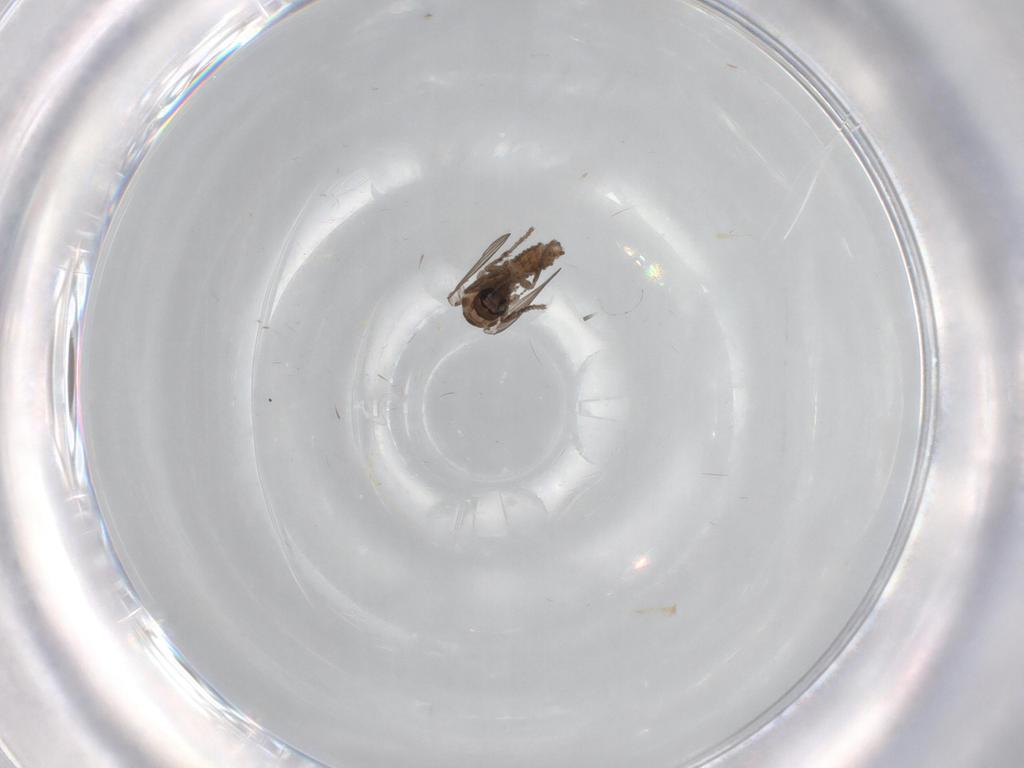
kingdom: Animalia
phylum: Arthropoda
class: Insecta
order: Diptera
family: Psychodidae
